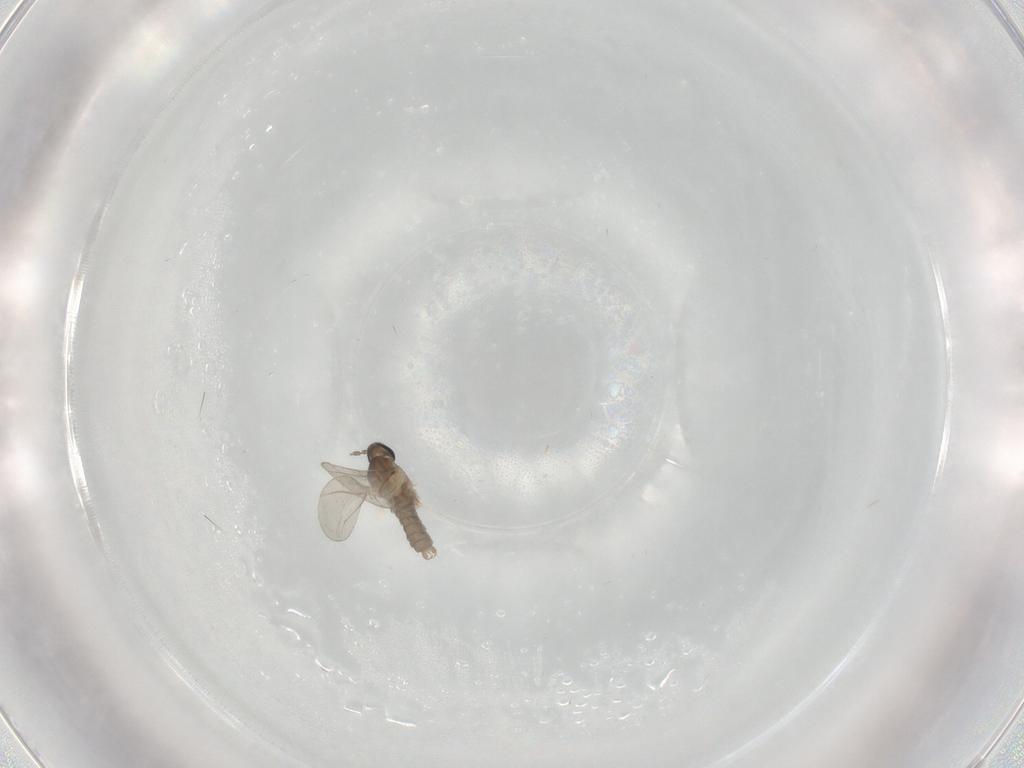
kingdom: Animalia
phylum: Arthropoda
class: Insecta
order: Diptera
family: Cecidomyiidae
